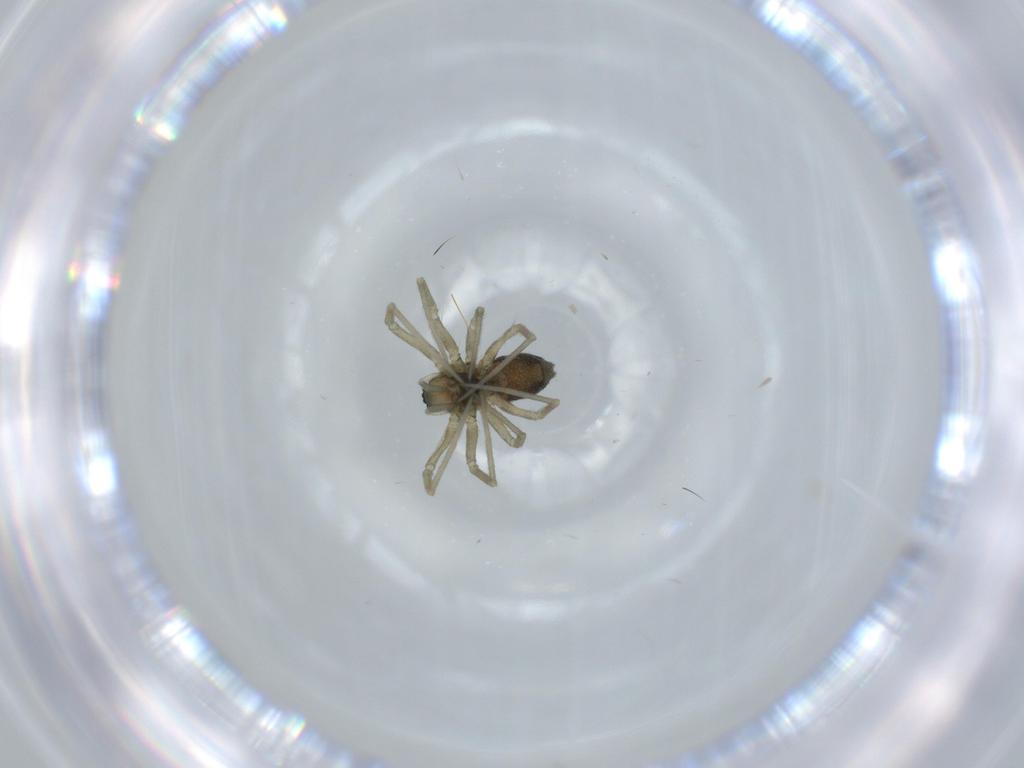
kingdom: Animalia
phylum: Arthropoda
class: Arachnida
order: Araneae
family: Linyphiidae
